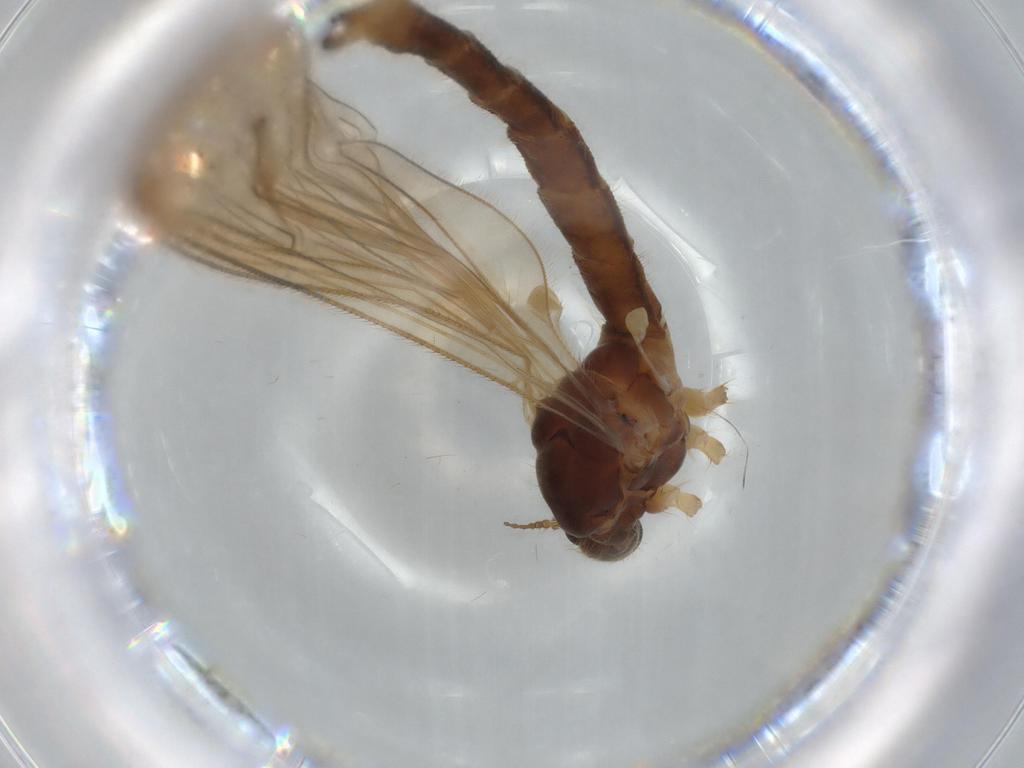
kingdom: Animalia
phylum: Arthropoda
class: Insecta
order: Diptera
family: Limoniidae
